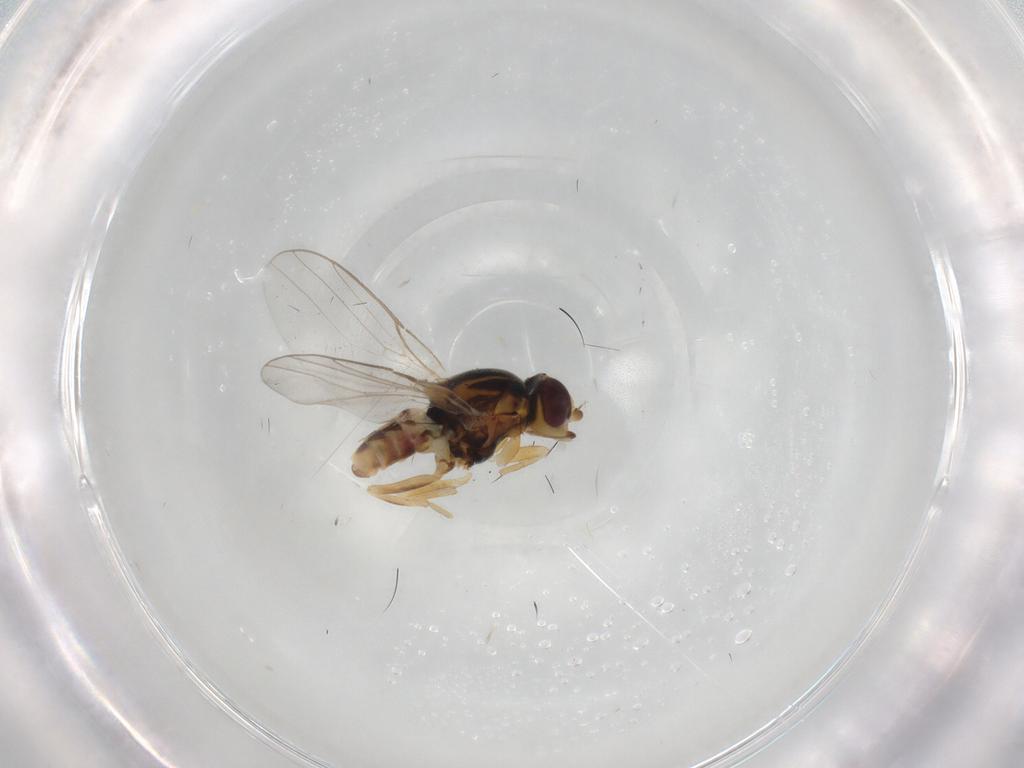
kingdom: Animalia
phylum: Arthropoda
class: Insecta
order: Diptera
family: Chloropidae
